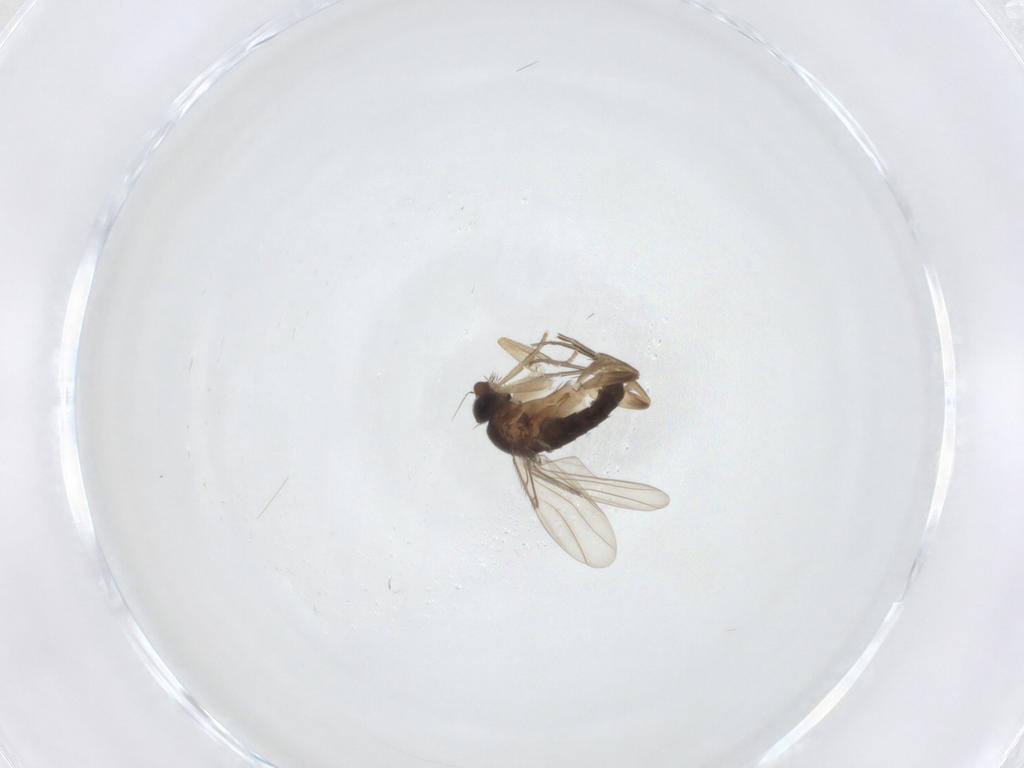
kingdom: Animalia
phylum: Arthropoda
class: Insecta
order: Diptera
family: Phoridae
